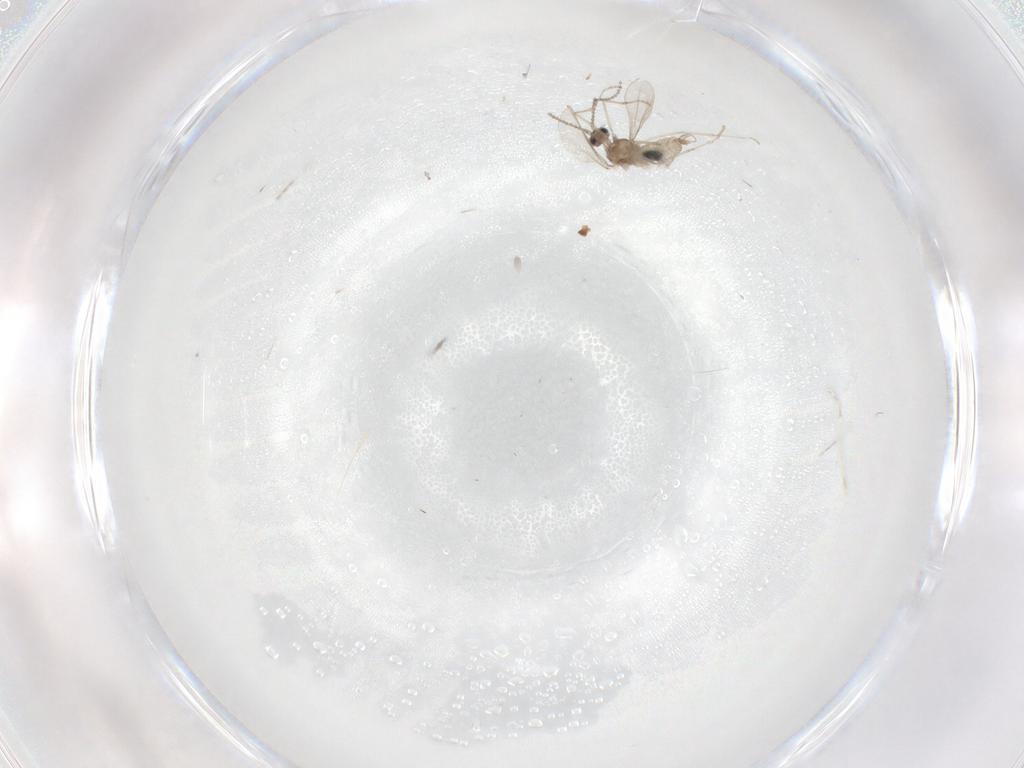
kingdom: Animalia
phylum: Arthropoda
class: Insecta
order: Diptera
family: Cecidomyiidae
